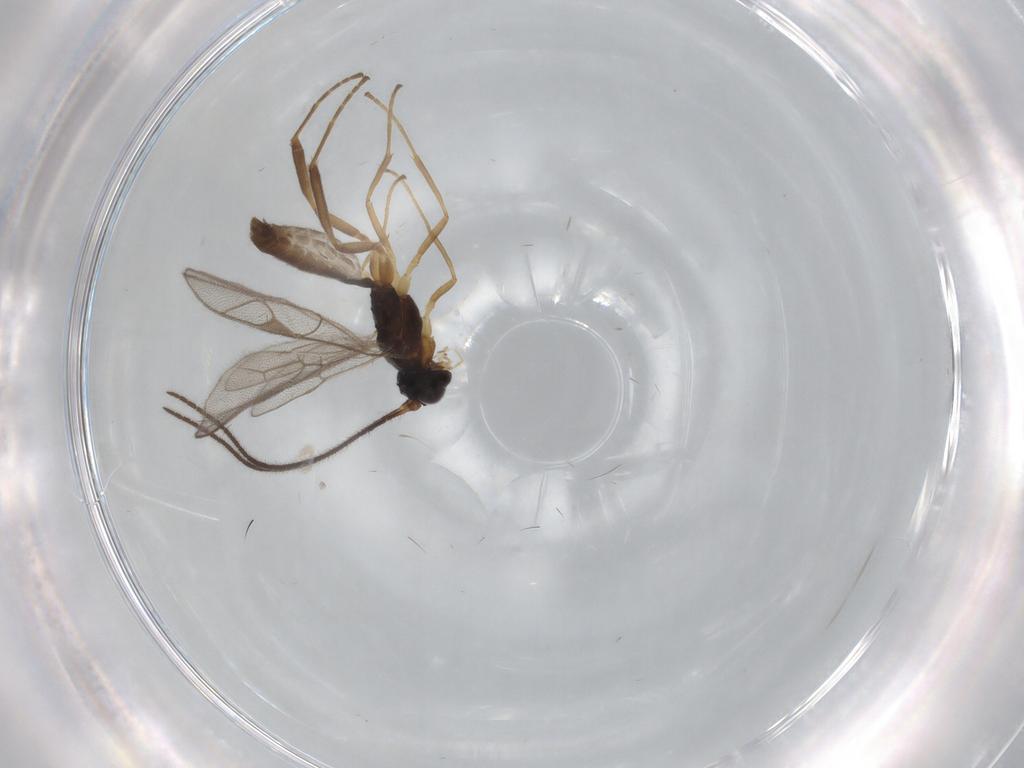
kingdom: Animalia
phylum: Arthropoda
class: Insecta
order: Hymenoptera
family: Ichneumonidae
